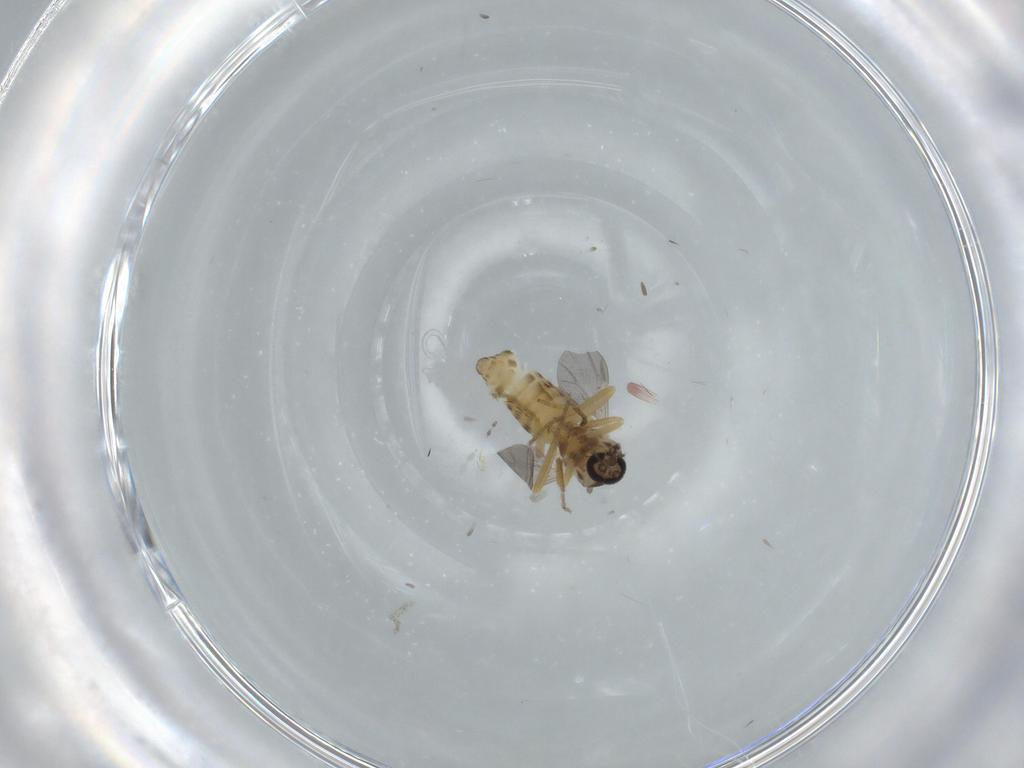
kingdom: Animalia
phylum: Arthropoda
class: Insecta
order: Diptera
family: Ceratopogonidae
